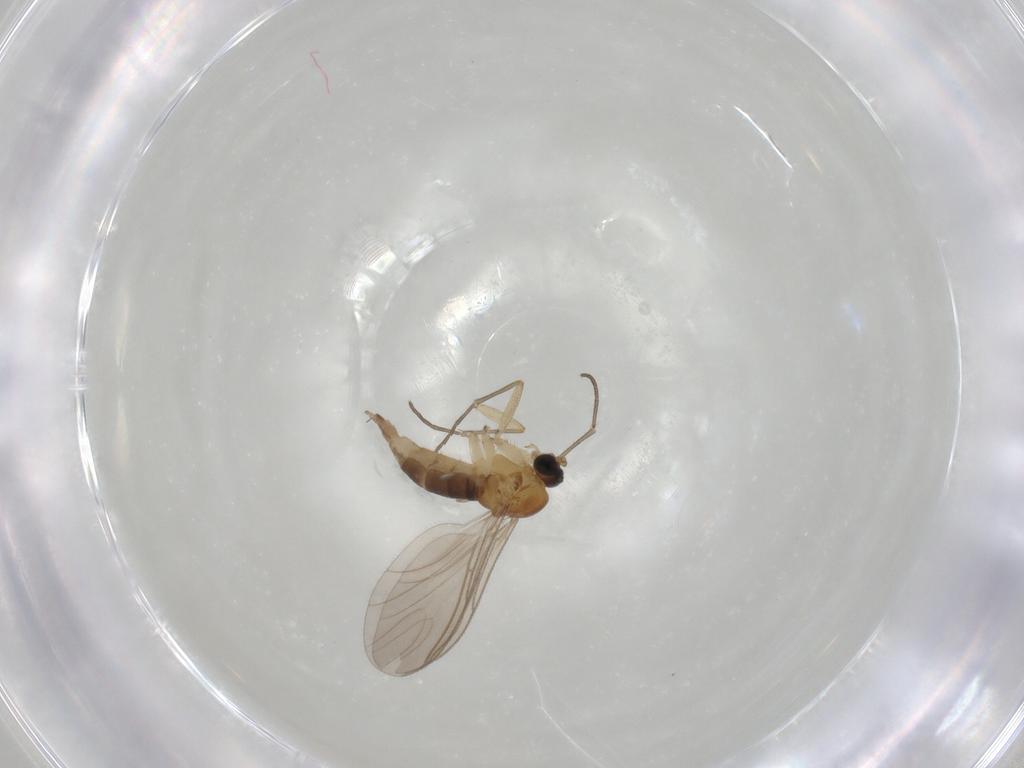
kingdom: Animalia
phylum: Arthropoda
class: Insecta
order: Diptera
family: Sciaridae
